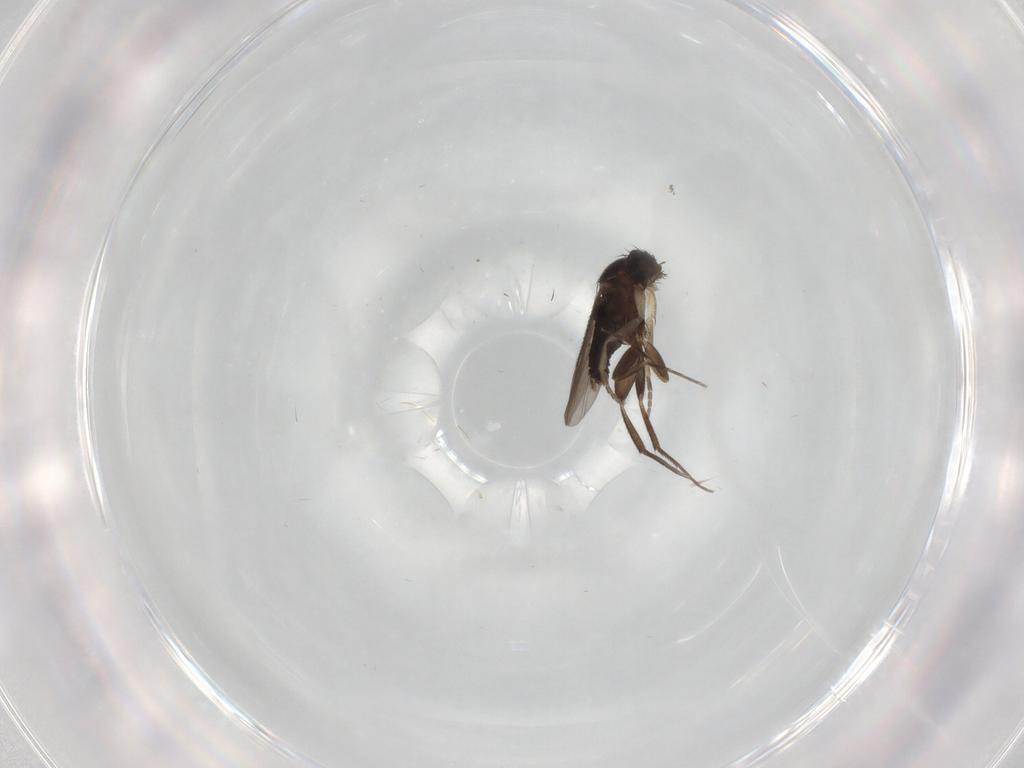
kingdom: Animalia
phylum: Arthropoda
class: Insecta
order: Diptera
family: Phoridae
